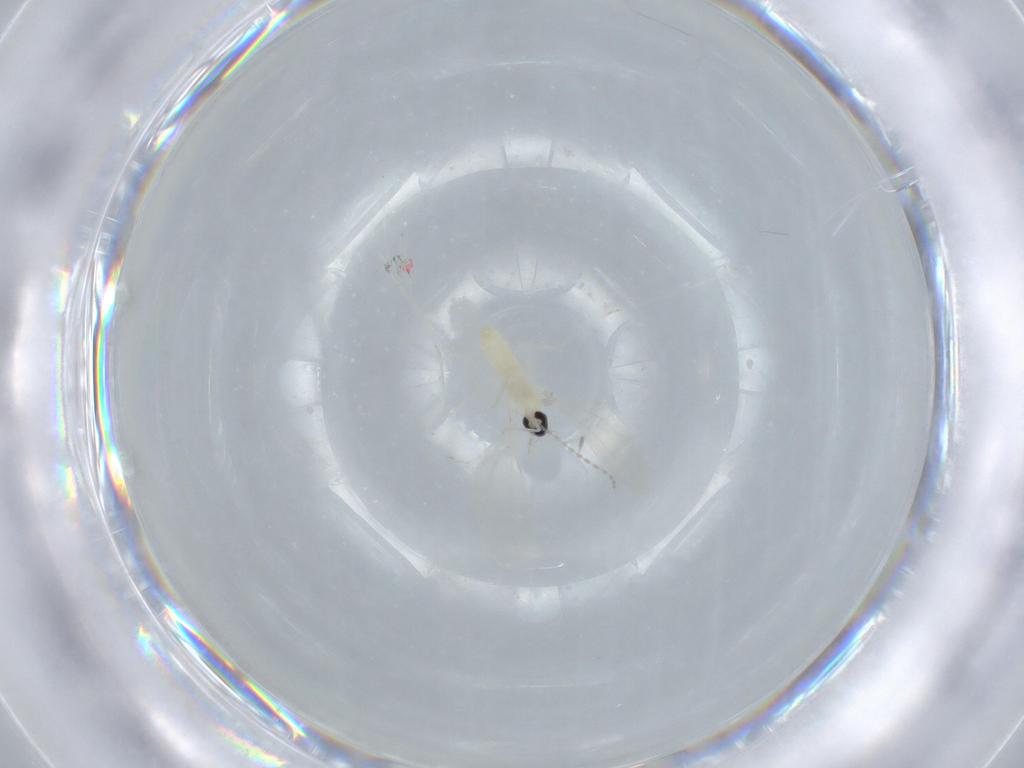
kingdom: Animalia
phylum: Arthropoda
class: Insecta
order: Diptera
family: Cecidomyiidae
